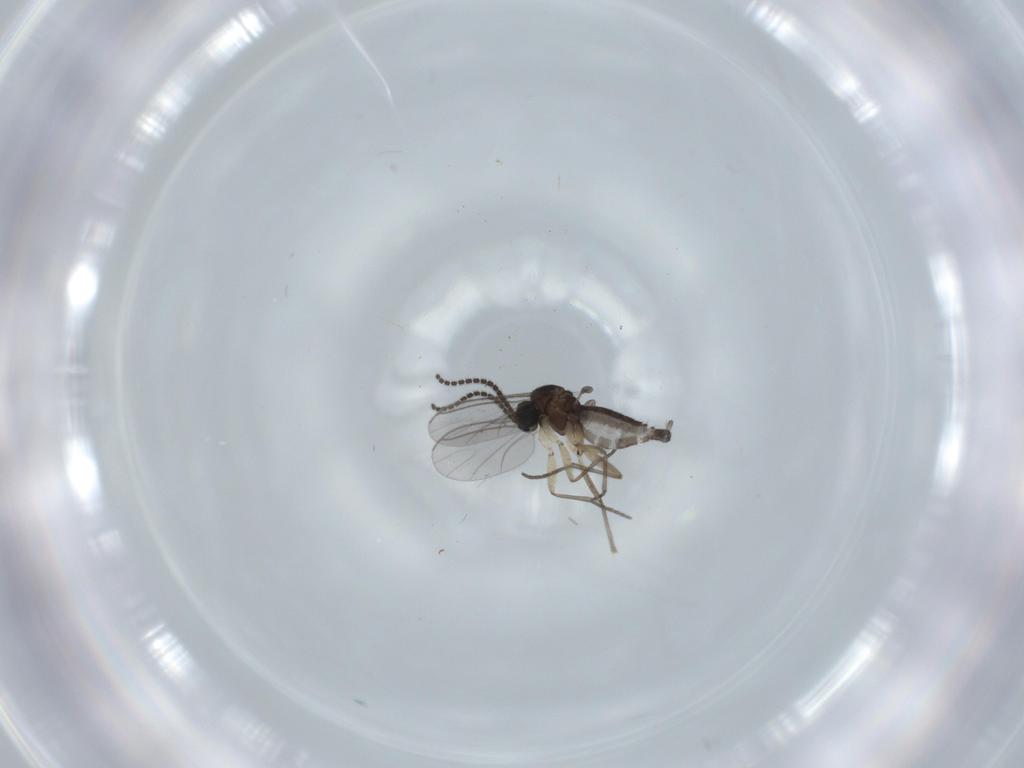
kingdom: Animalia
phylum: Arthropoda
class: Insecta
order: Diptera
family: Sciaridae
